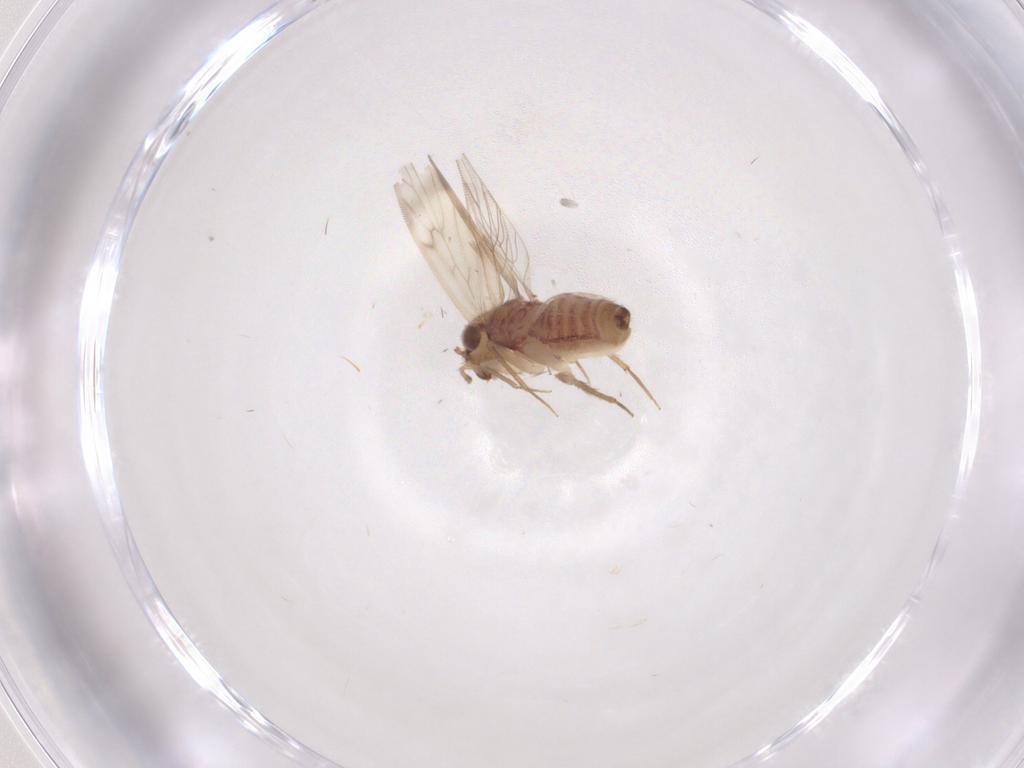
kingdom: Animalia
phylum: Arthropoda
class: Insecta
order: Psocodea
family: Lepidopsocidae
